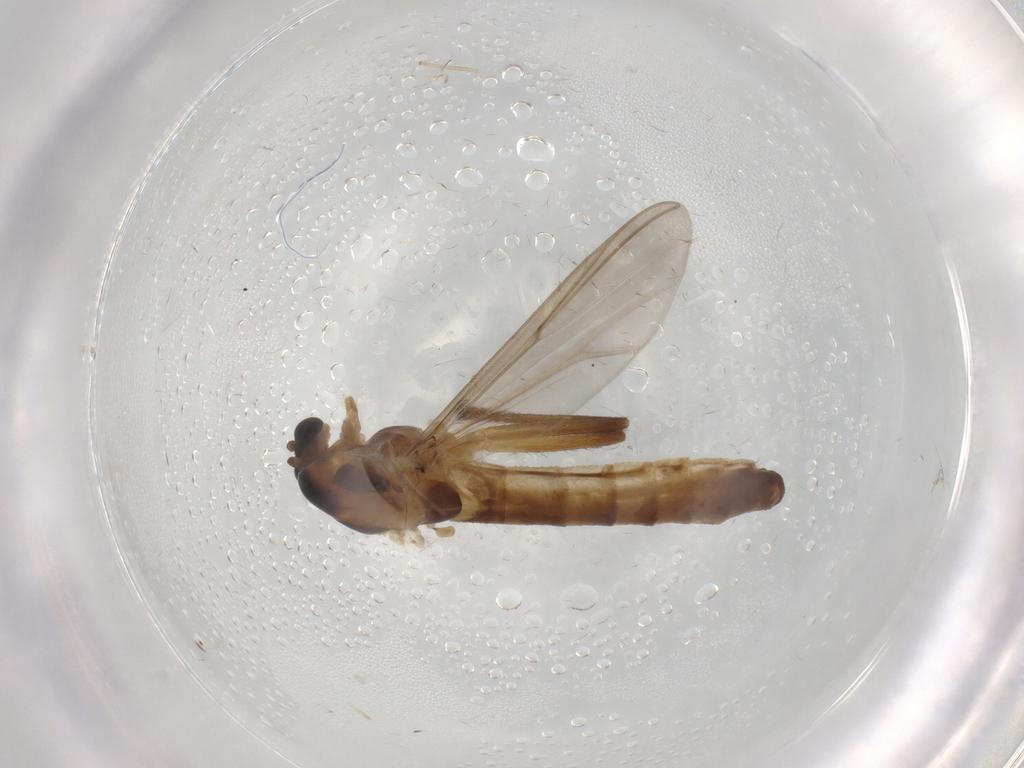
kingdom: Animalia
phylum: Arthropoda
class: Insecta
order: Diptera
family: Chironomidae
